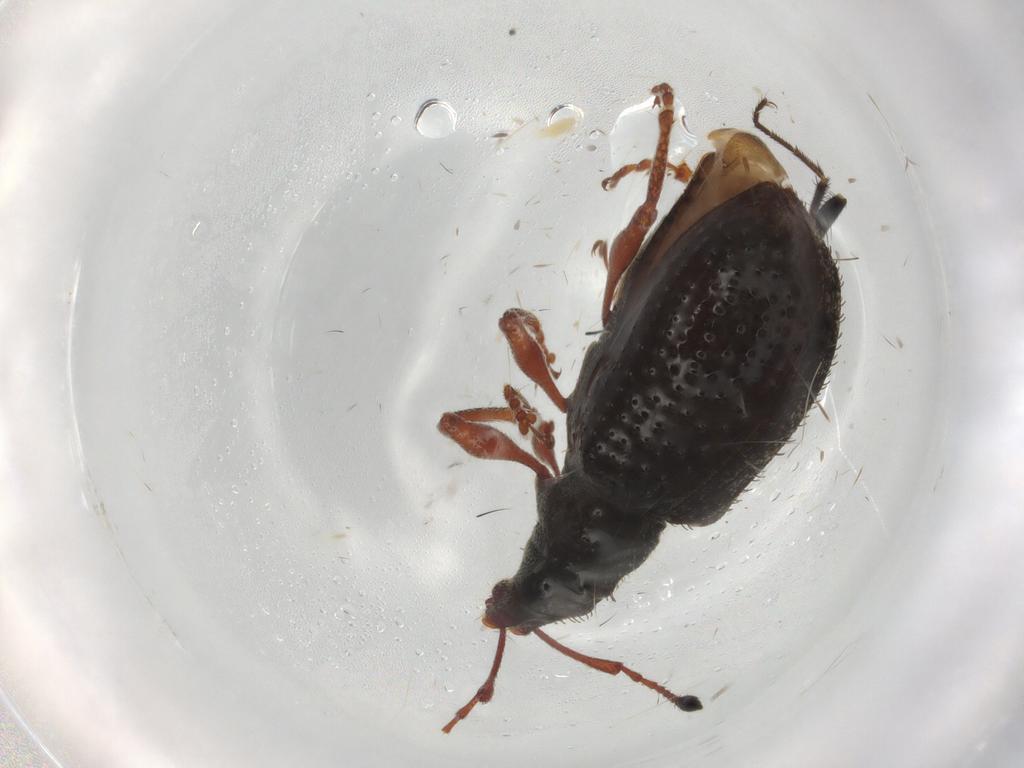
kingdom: Animalia
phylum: Arthropoda
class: Insecta
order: Coleoptera
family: Curculionidae
